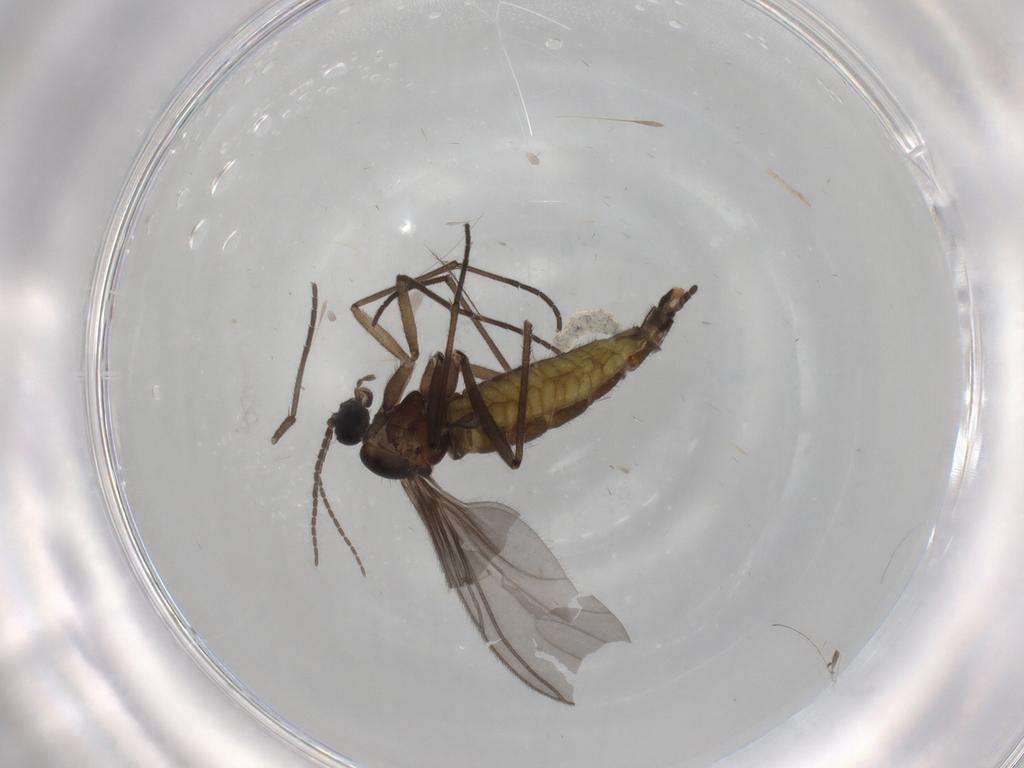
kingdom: Animalia
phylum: Arthropoda
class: Insecta
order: Diptera
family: Sciaridae
